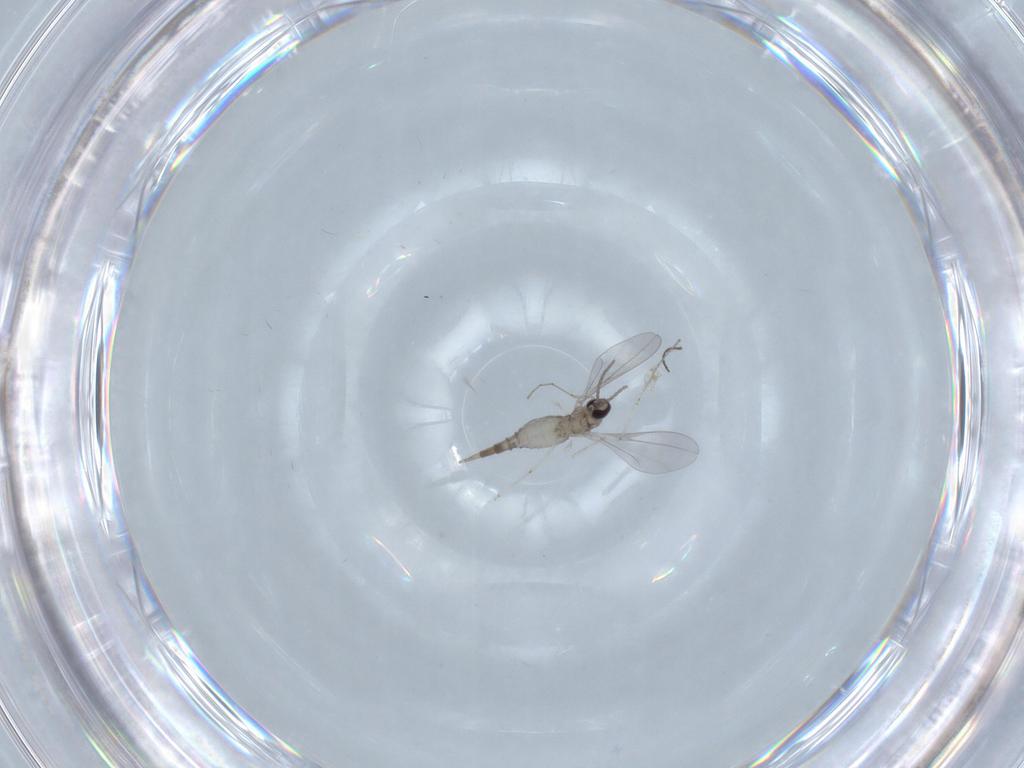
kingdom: Animalia
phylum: Arthropoda
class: Insecta
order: Diptera
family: Cecidomyiidae
